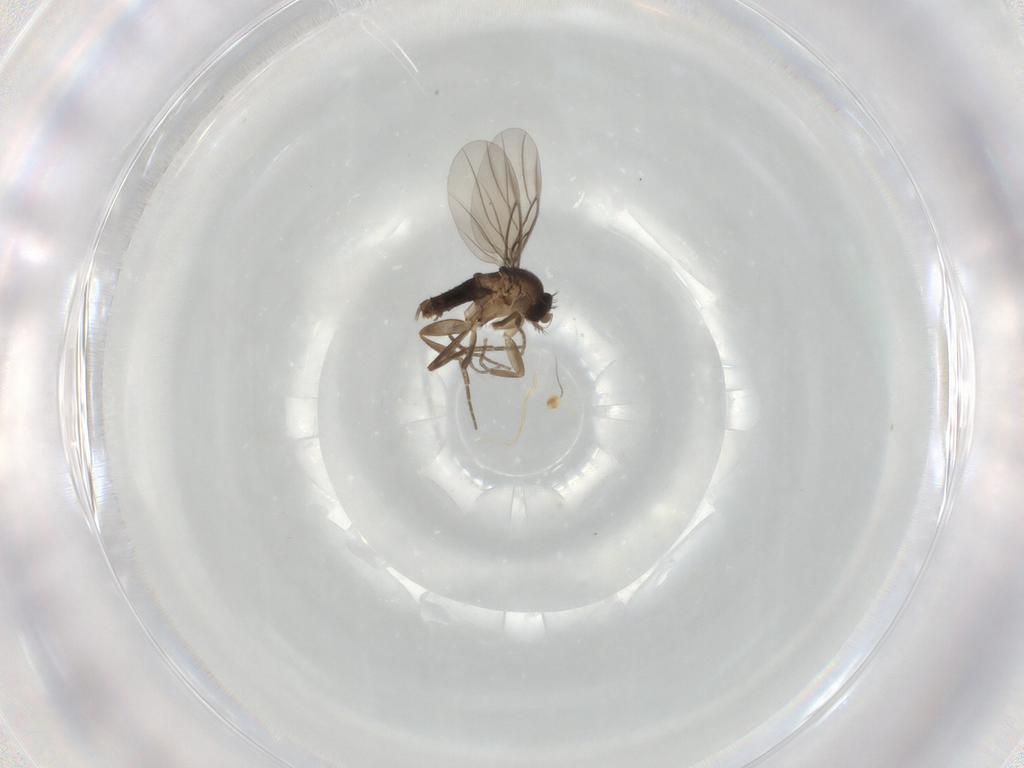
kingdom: Animalia
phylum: Arthropoda
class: Insecta
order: Diptera
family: Phoridae
